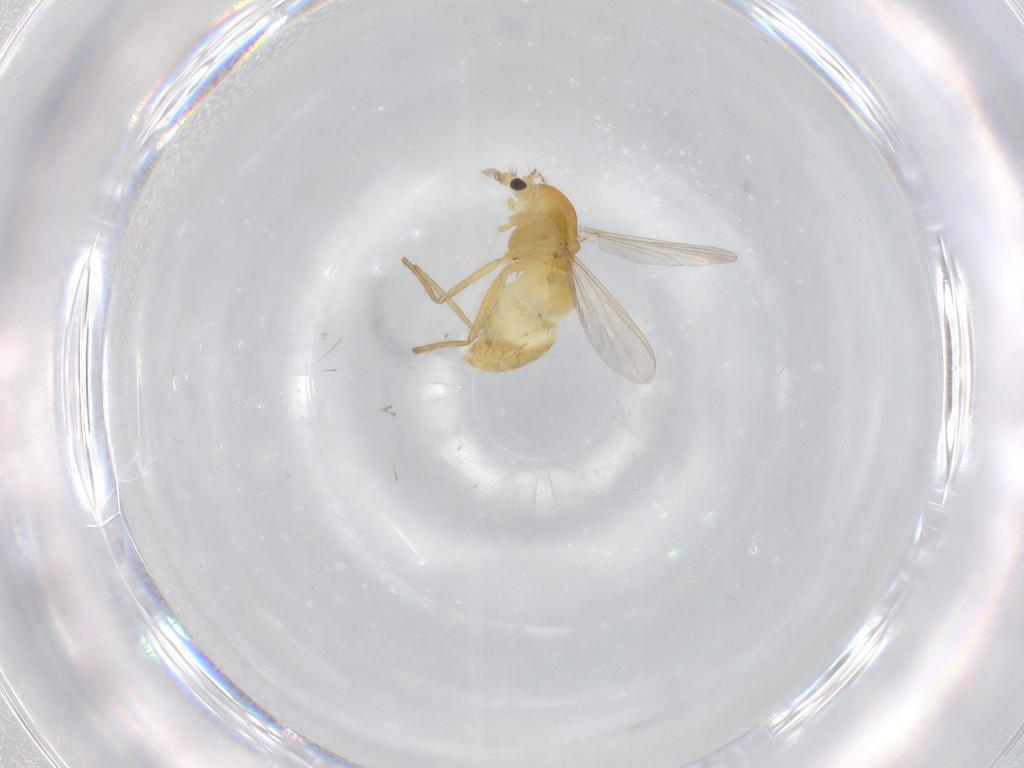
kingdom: Animalia
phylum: Arthropoda
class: Insecta
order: Diptera
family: Chironomidae
